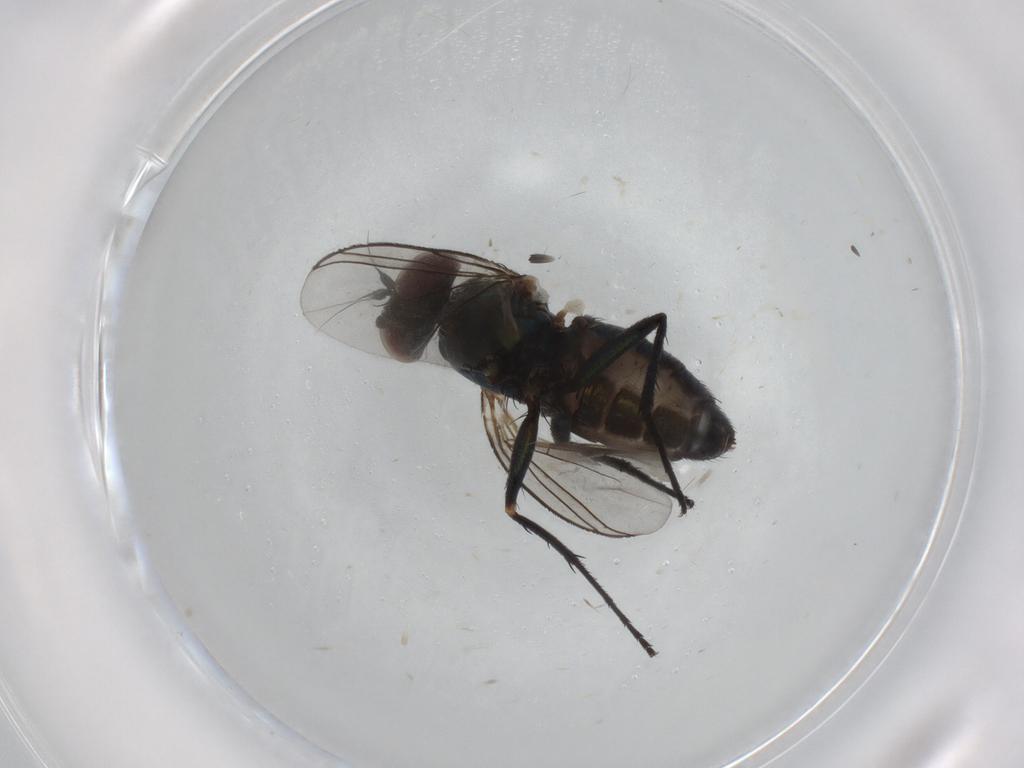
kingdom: Animalia
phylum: Arthropoda
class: Insecta
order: Diptera
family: Dolichopodidae
